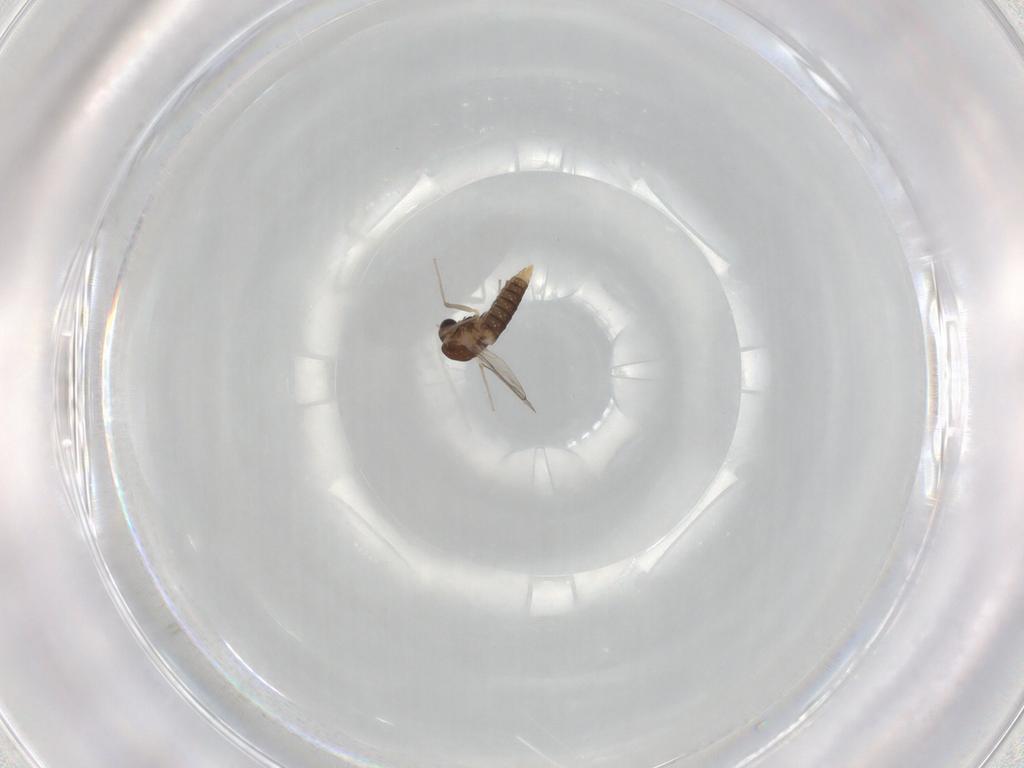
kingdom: Animalia
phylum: Arthropoda
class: Insecta
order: Diptera
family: Chironomidae
